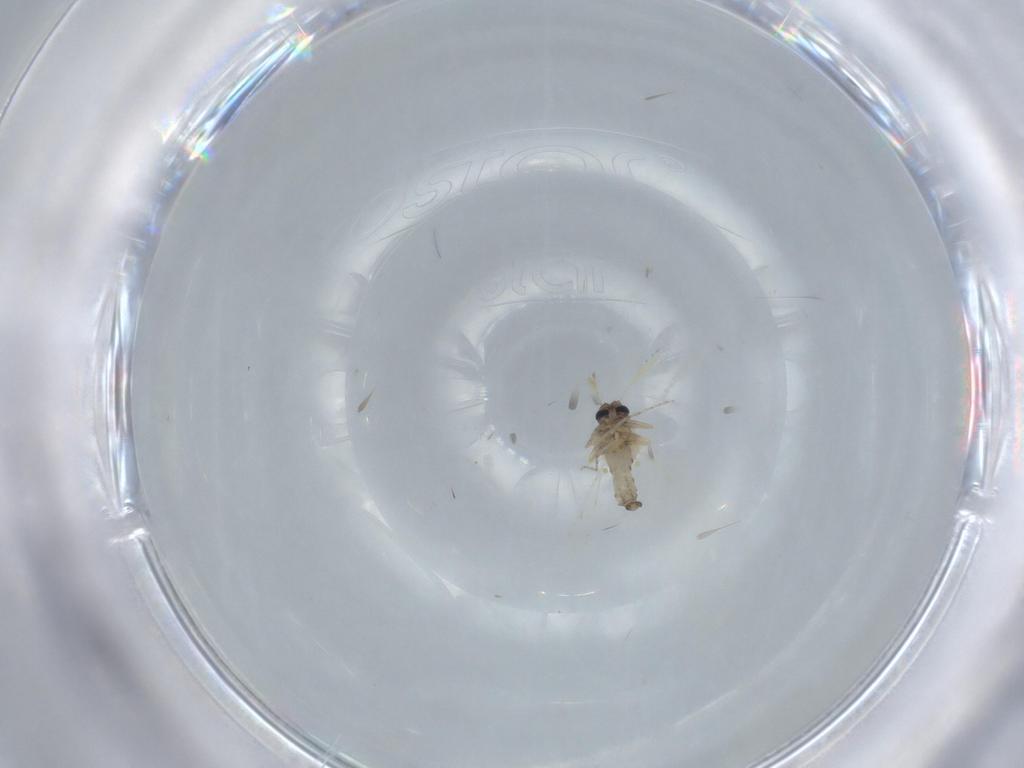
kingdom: Animalia
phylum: Arthropoda
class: Insecta
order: Diptera
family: Ceratopogonidae
